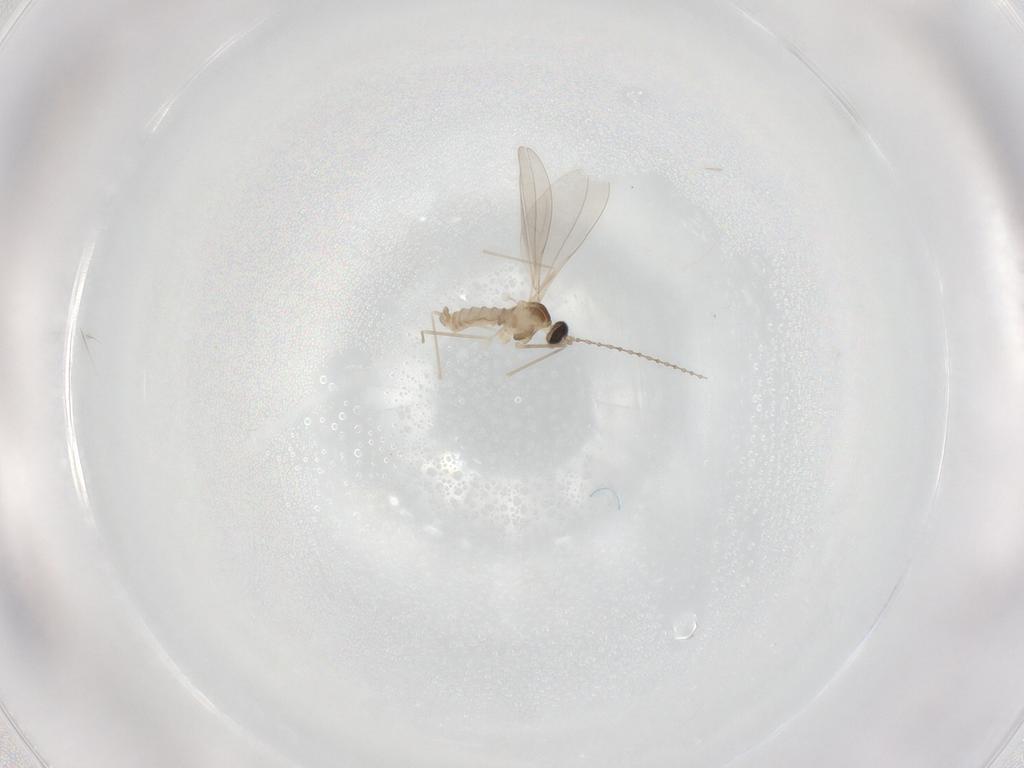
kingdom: Animalia
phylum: Arthropoda
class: Insecta
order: Diptera
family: Cecidomyiidae
